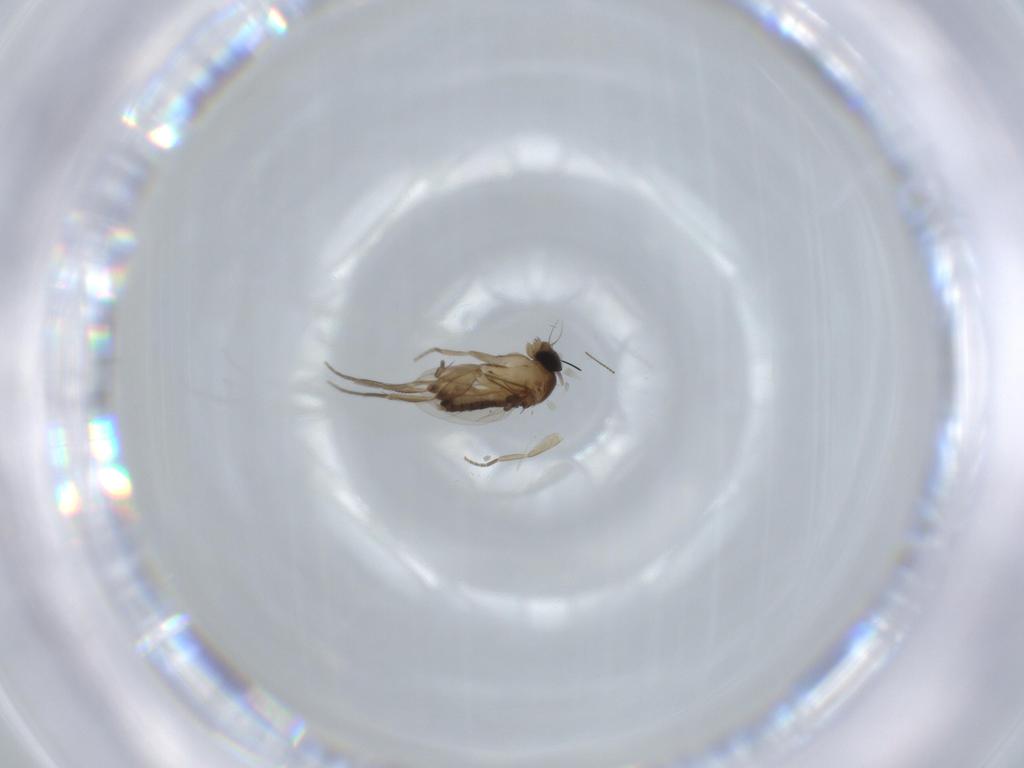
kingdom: Animalia
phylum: Arthropoda
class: Insecta
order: Diptera
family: Phoridae
